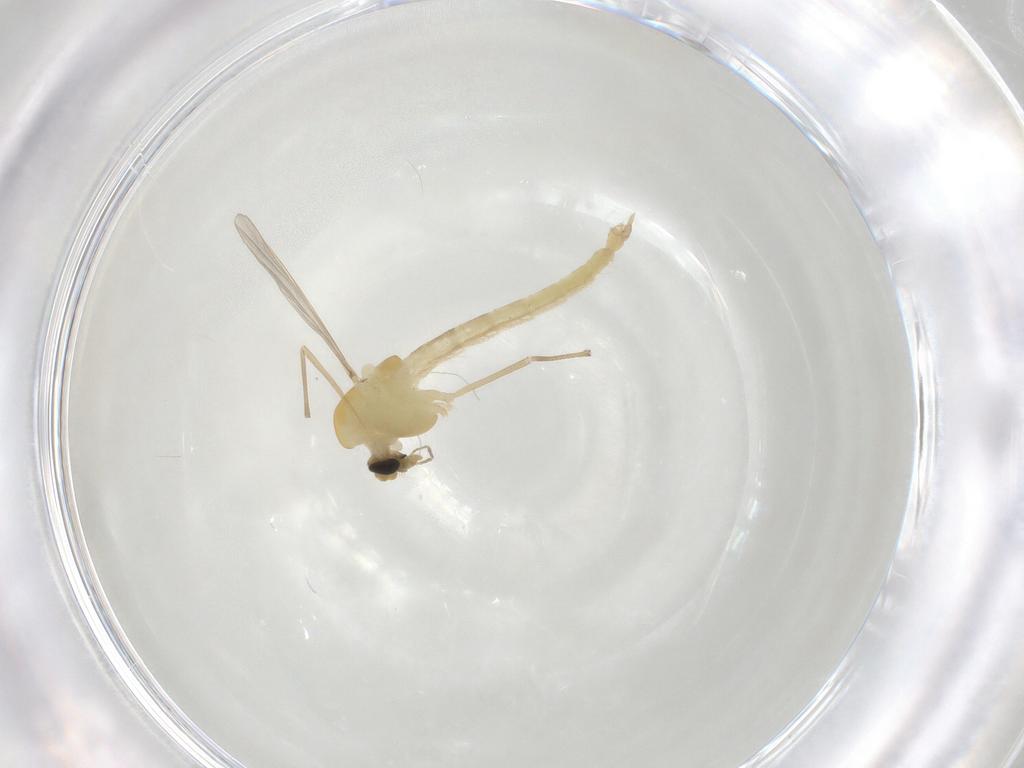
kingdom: Animalia
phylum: Arthropoda
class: Insecta
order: Diptera
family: Chironomidae
